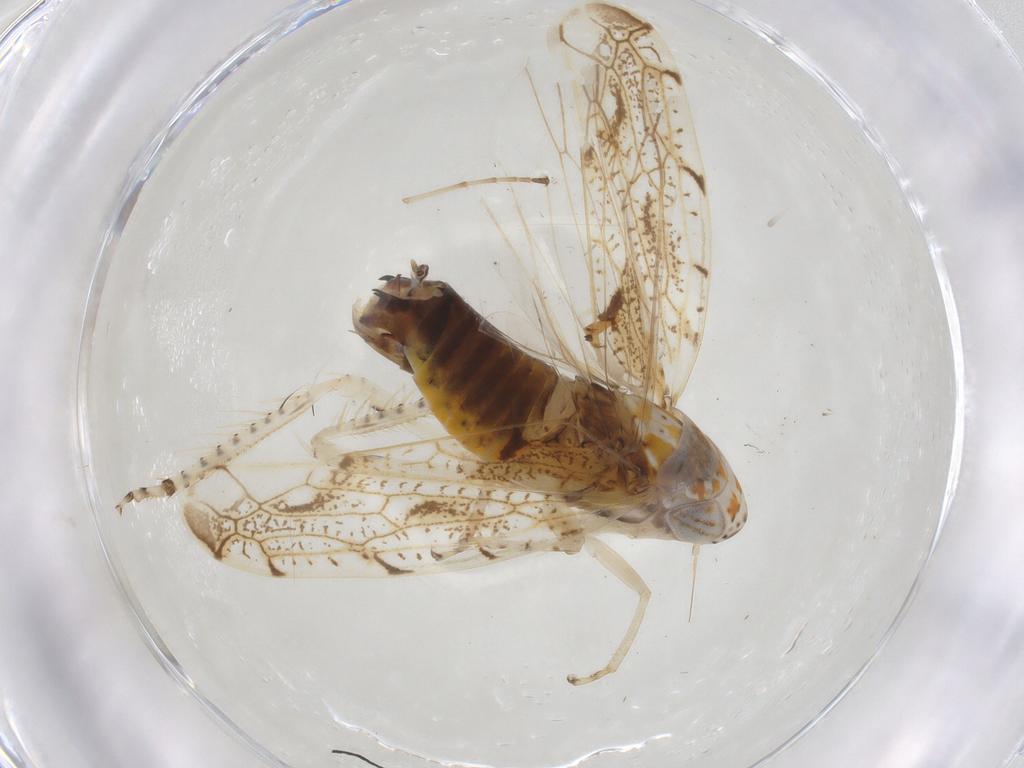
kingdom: Animalia
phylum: Arthropoda
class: Insecta
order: Hemiptera
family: Cicadellidae
